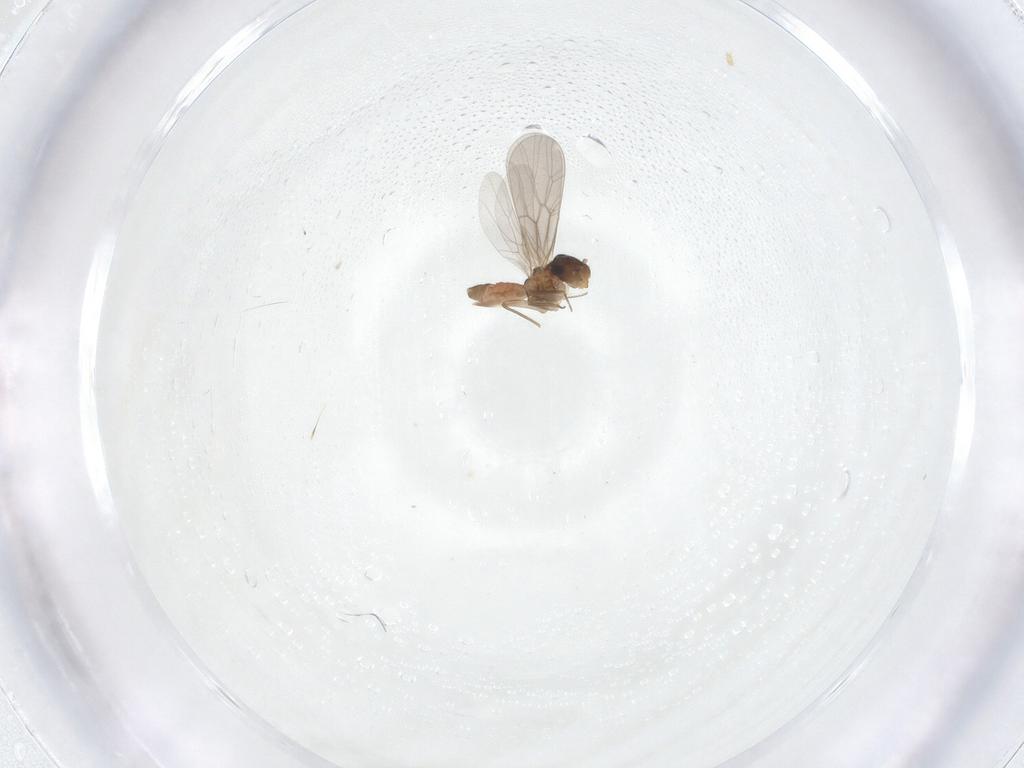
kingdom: Animalia
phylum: Arthropoda
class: Insecta
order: Psocodea
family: Lepidopsocidae
